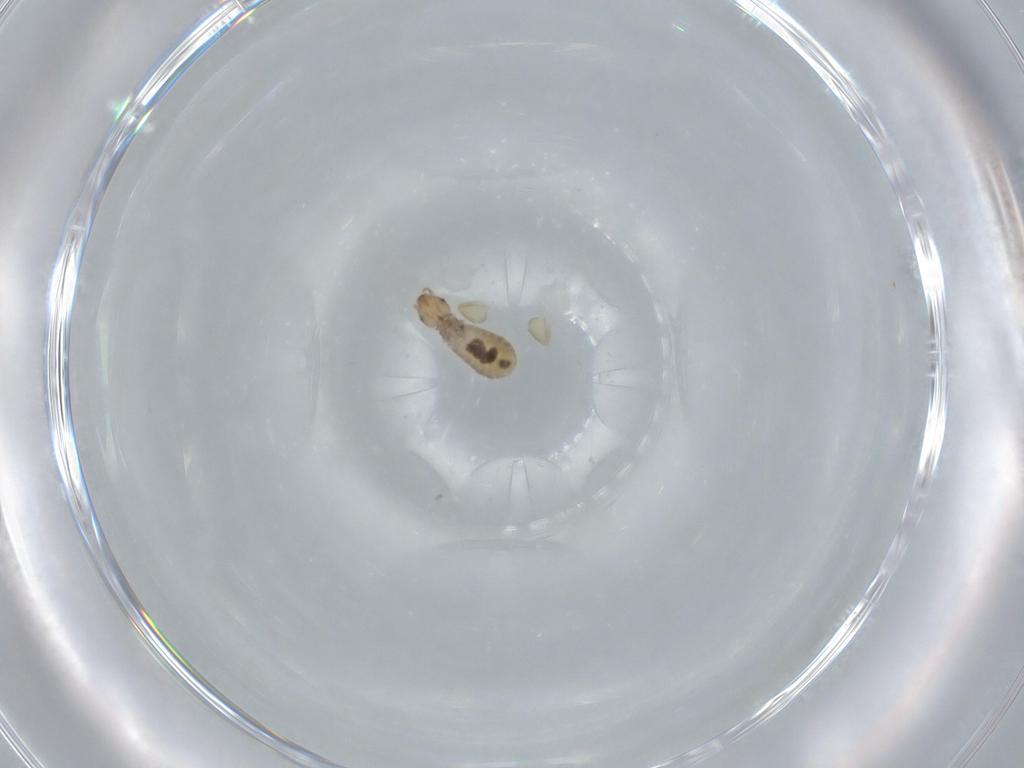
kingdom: Animalia
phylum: Arthropoda
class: Insecta
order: Psocodea
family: Liposcelididae
